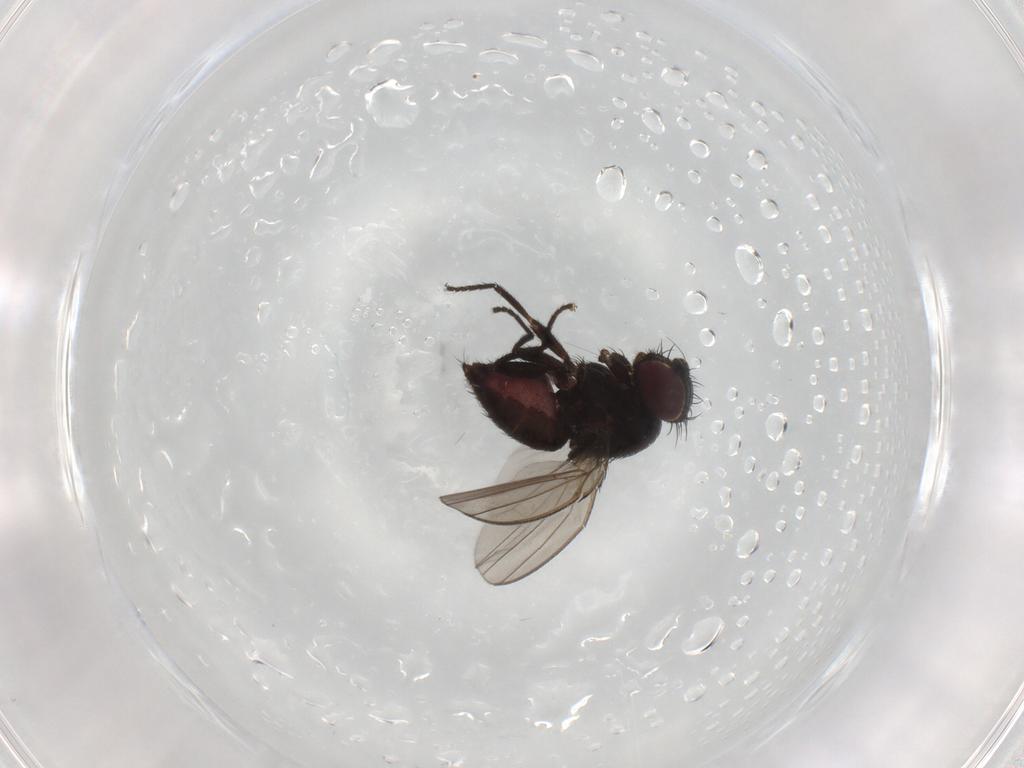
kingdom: Animalia
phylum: Arthropoda
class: Insecta
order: Diptera
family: Milichiidae
